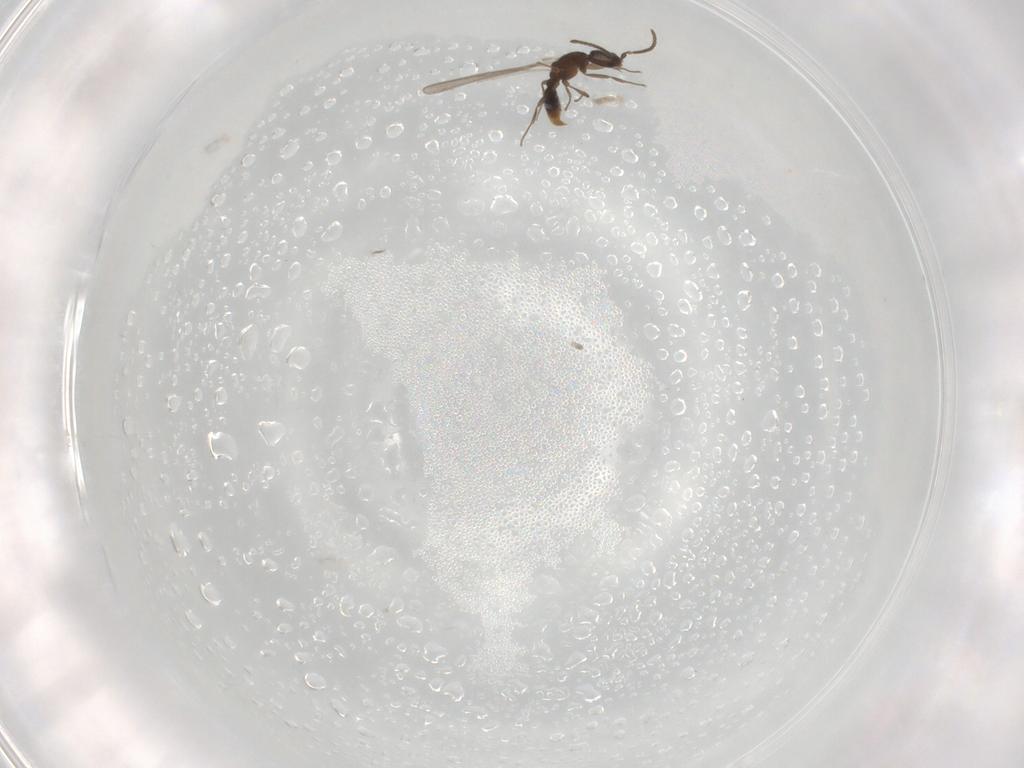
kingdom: Animalia
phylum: Arthropoda
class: Insecta
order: Hymenoptera
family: Formicidae
